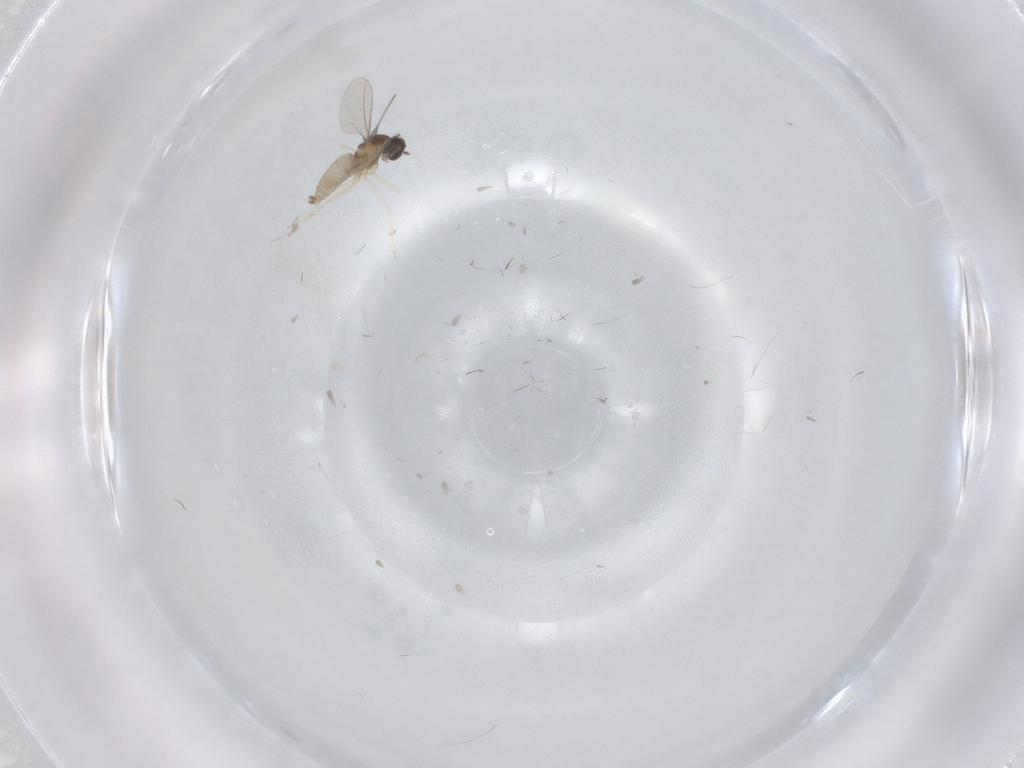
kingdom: Animalia
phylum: Arthropoda
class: Insecta
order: Diptera
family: Cecidomyiidae
